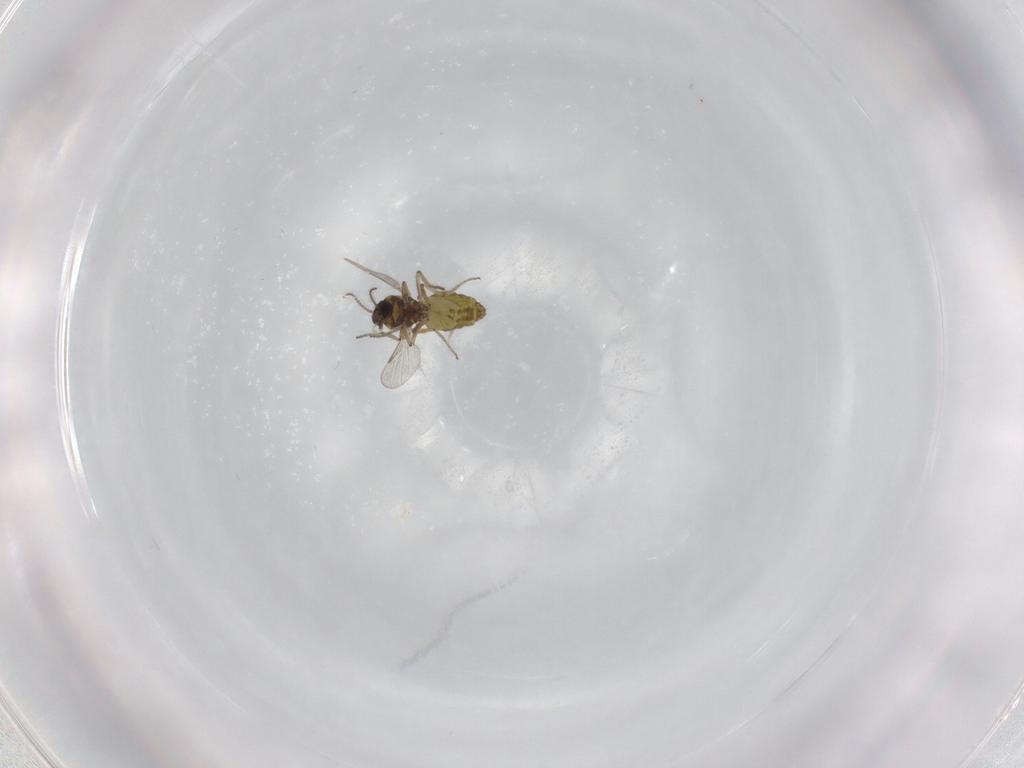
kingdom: Animalia
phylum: Arthropoda
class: Insecta
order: Diptera
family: Ceratopogonidae
